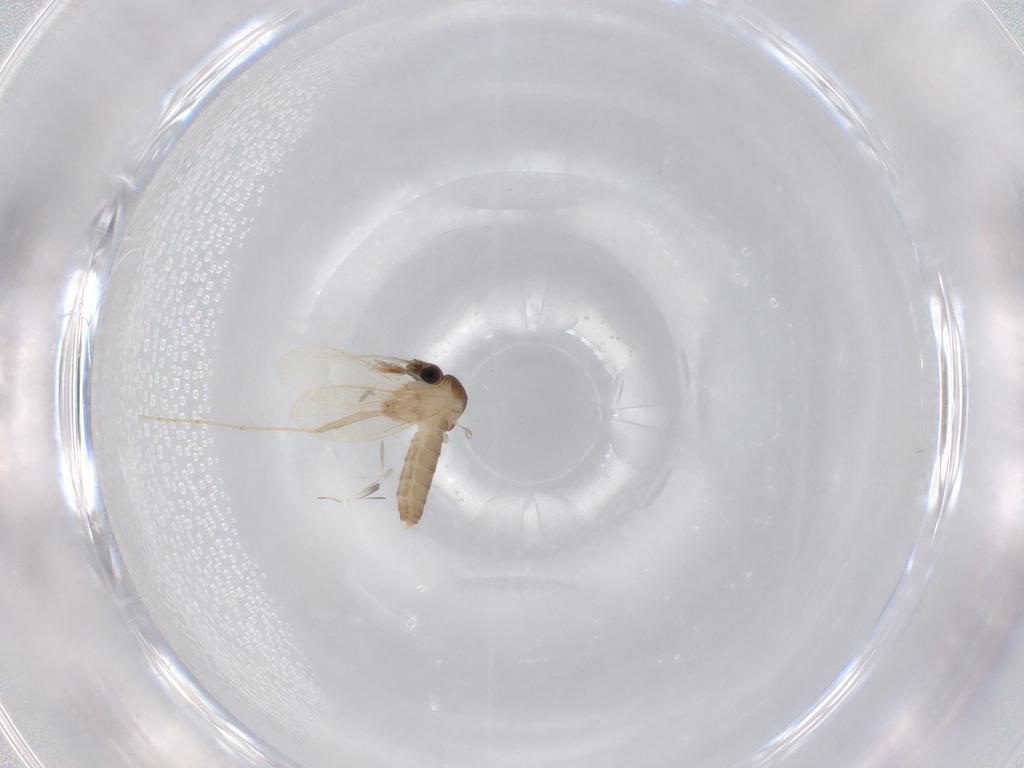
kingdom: Animalia
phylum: Arthropoda
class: Insecta
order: Diptera
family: Psychodidae
